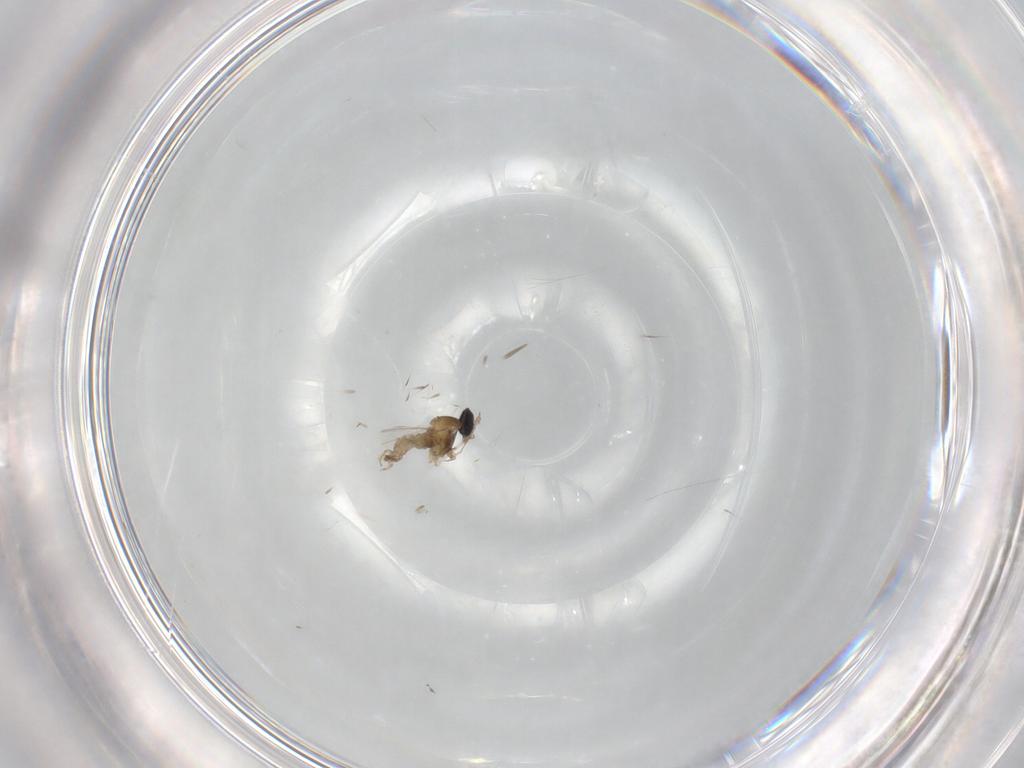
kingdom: Animalia
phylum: Arthropoda
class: Insecta
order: Diptera
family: Cecidomyiidae
